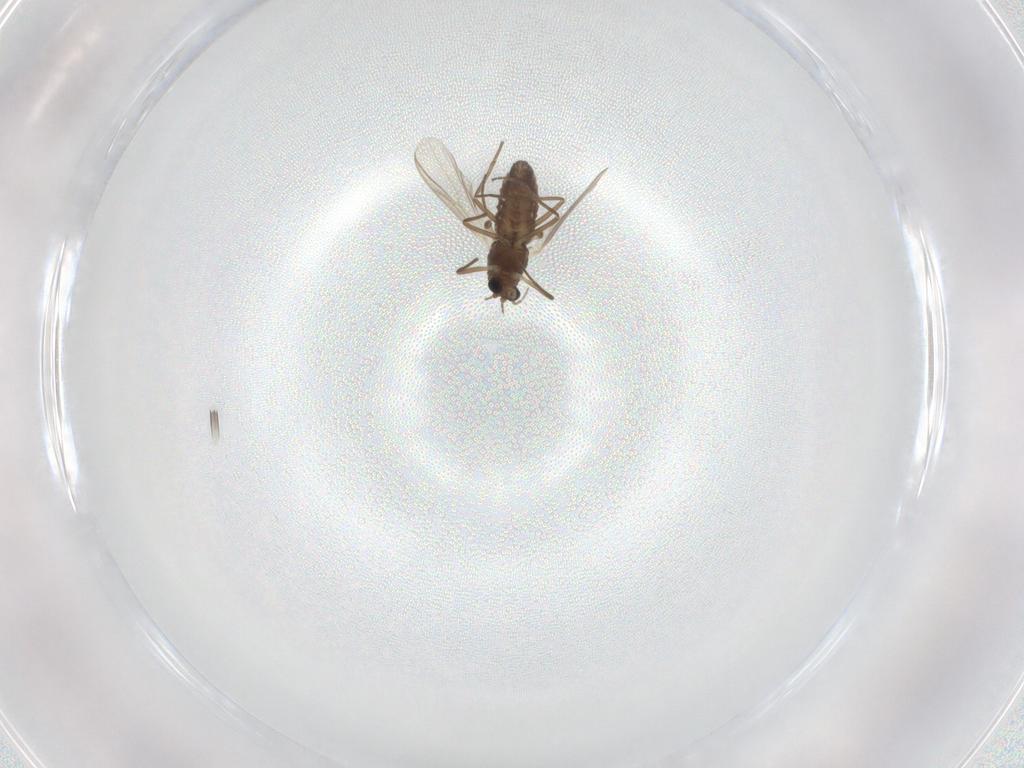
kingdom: Animalia
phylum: Arthropoda
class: Insecta
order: Diptera
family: Chironomidae
